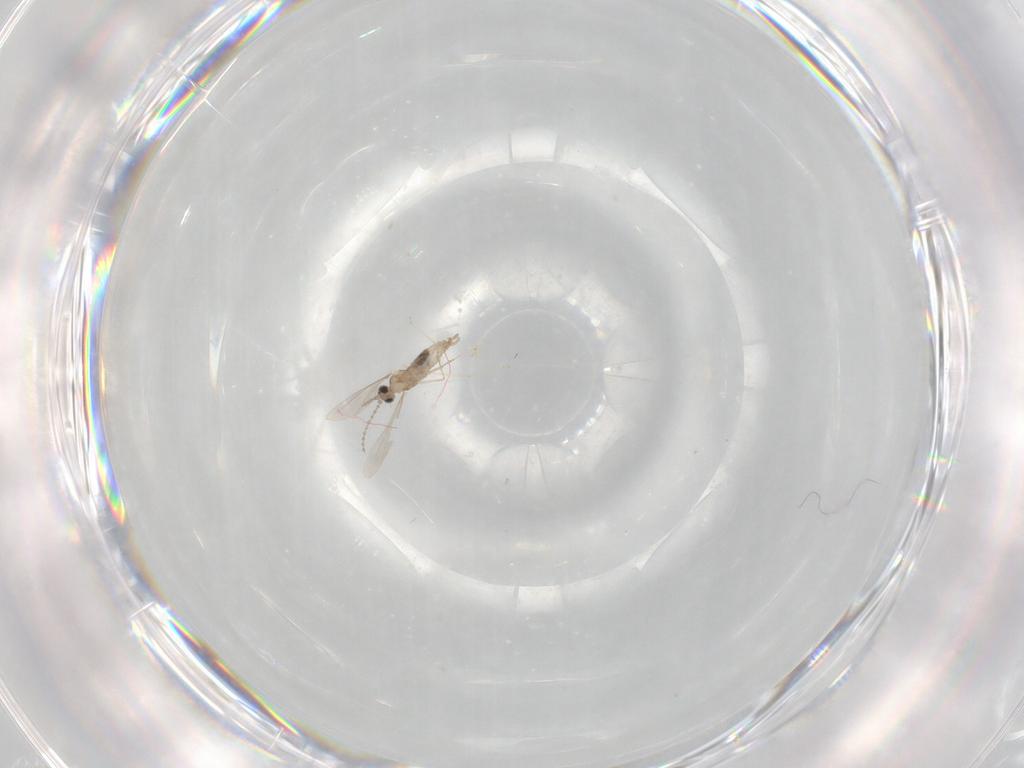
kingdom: Animalia
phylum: Arthropoda
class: Insecta
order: Diptera
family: Cecidomyiidae
